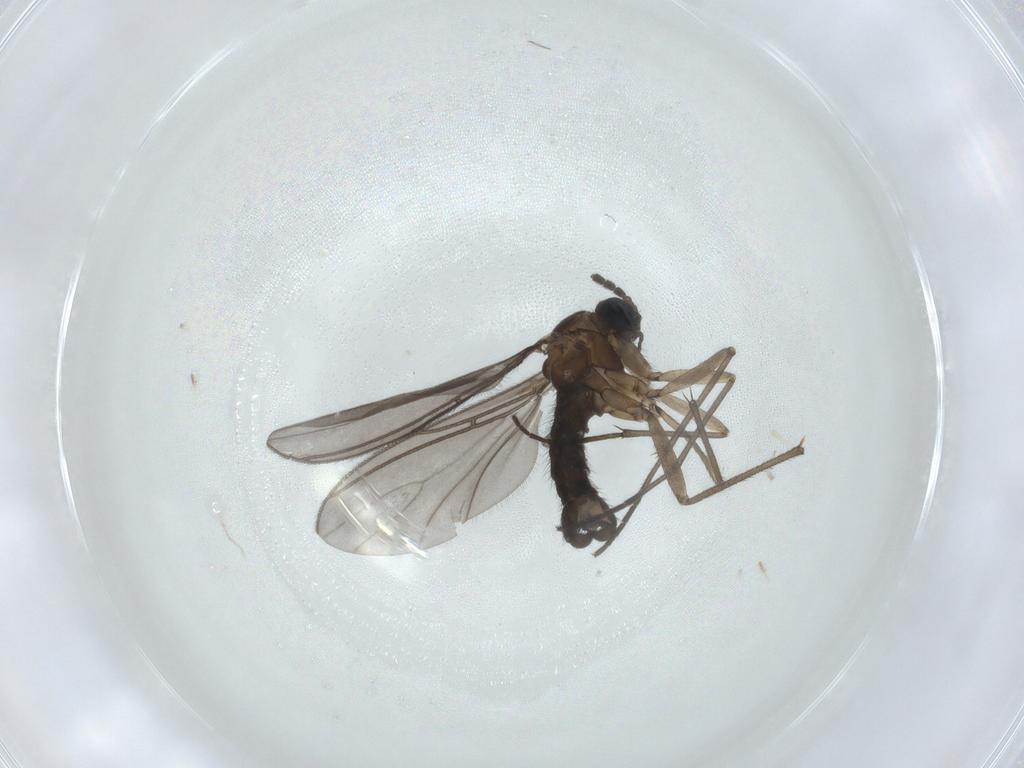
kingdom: Animalia
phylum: Arthropoda
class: Insecta
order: Diptera
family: Sciaridae
